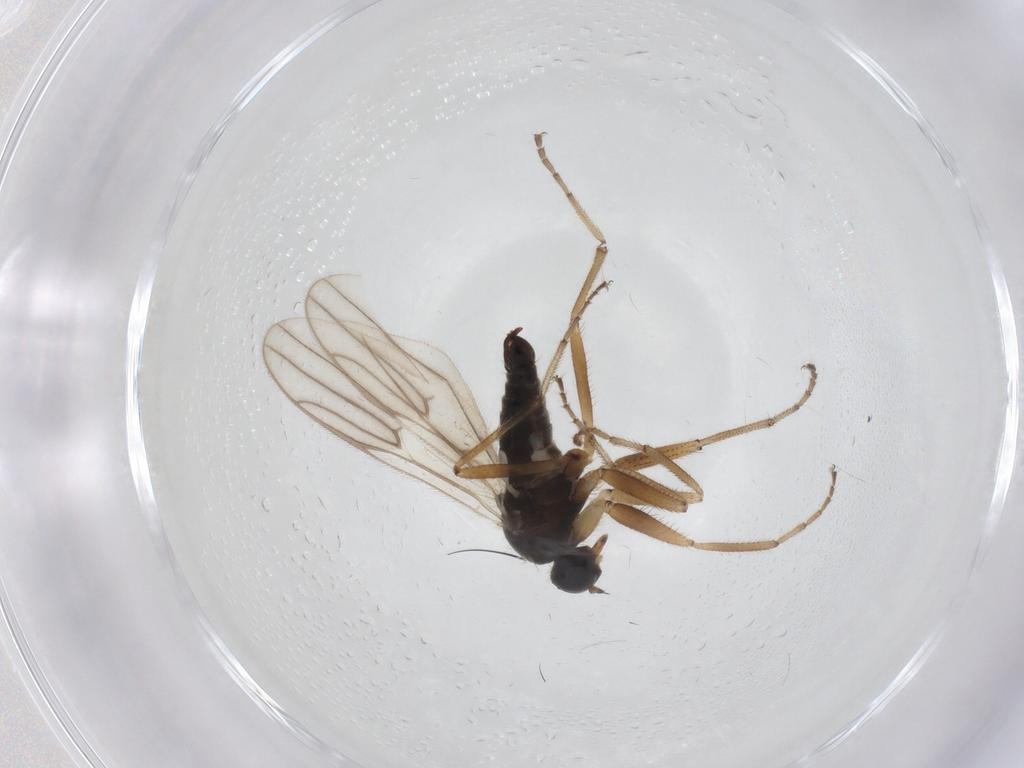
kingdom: Animalia
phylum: Arthropoda
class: Insecta
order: Diptera
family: Hybotidae
